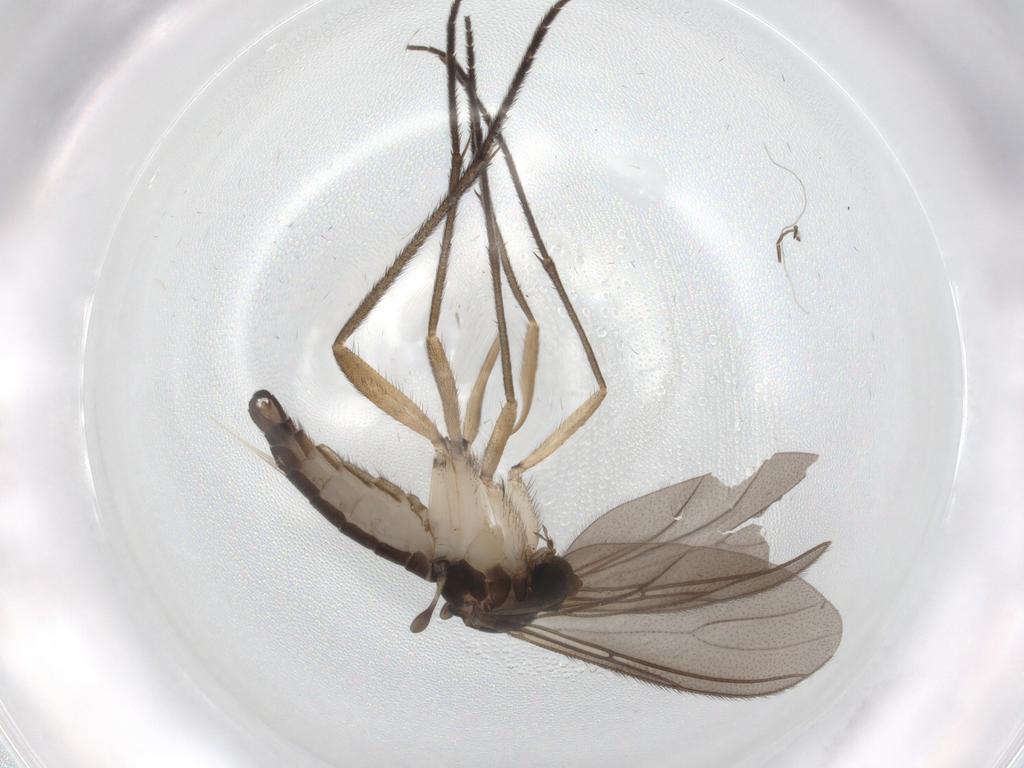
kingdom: Animalia
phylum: Arthropoda
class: Insecta
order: Diptera
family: Sciaridae
